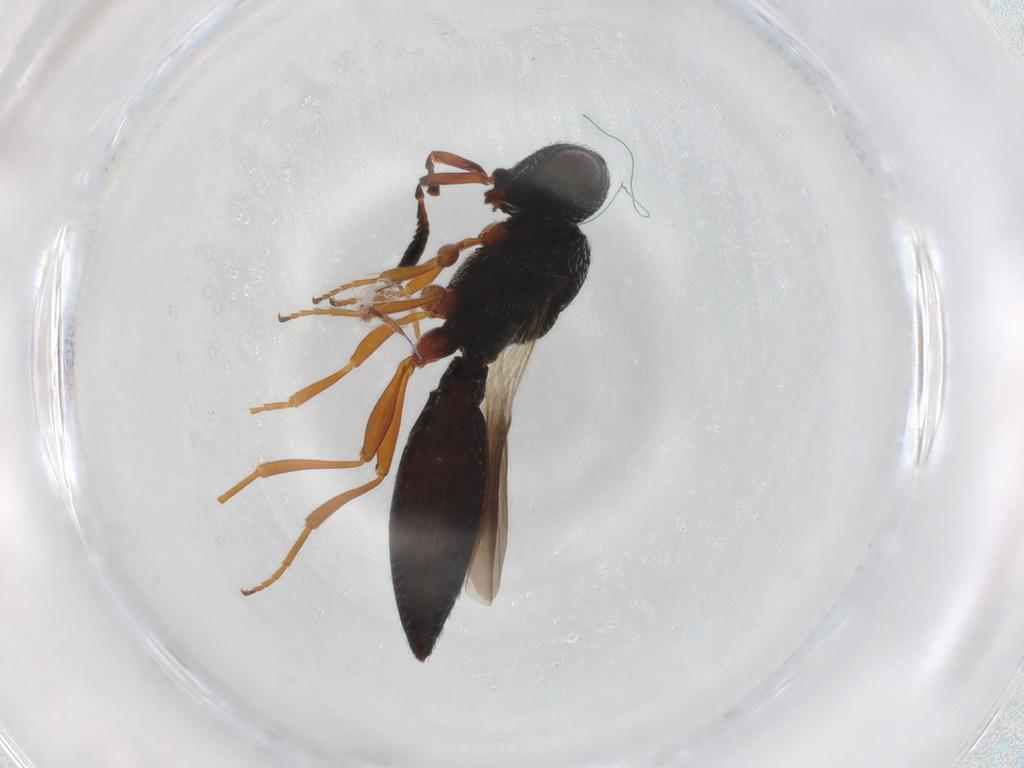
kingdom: Animalia
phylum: Arthropoda
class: Insecta
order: Hymenoptera
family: Scelionidae
